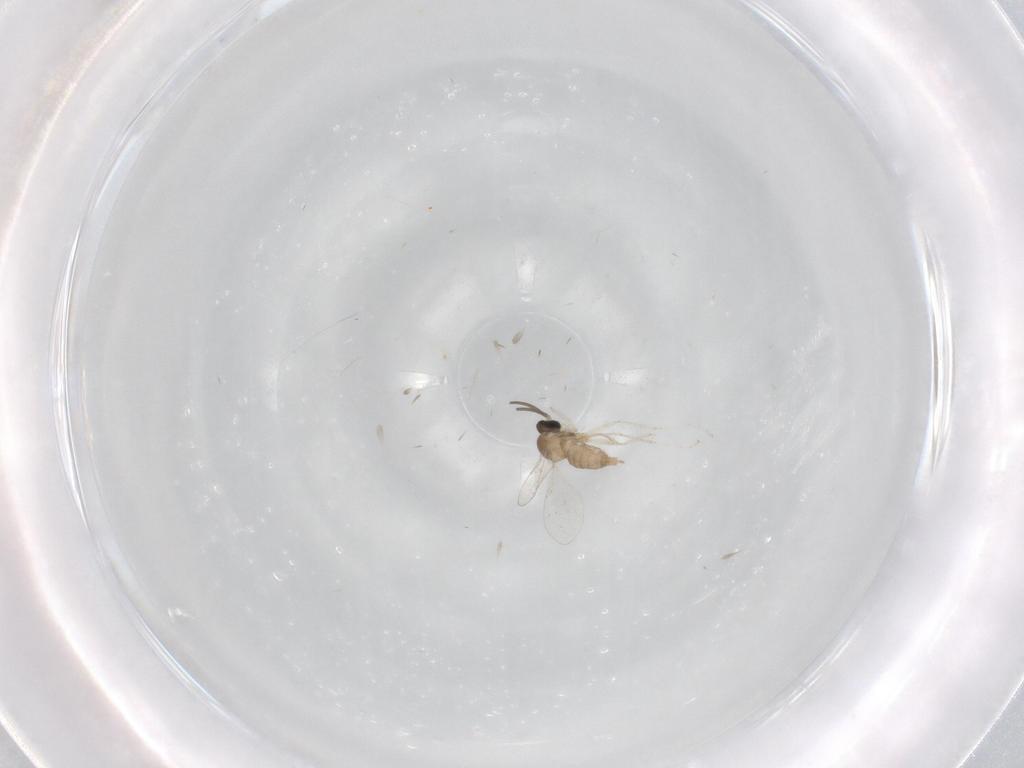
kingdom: Animalia
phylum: Arthropoda
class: Insecta
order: Diptera
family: Cecidomyiidae
